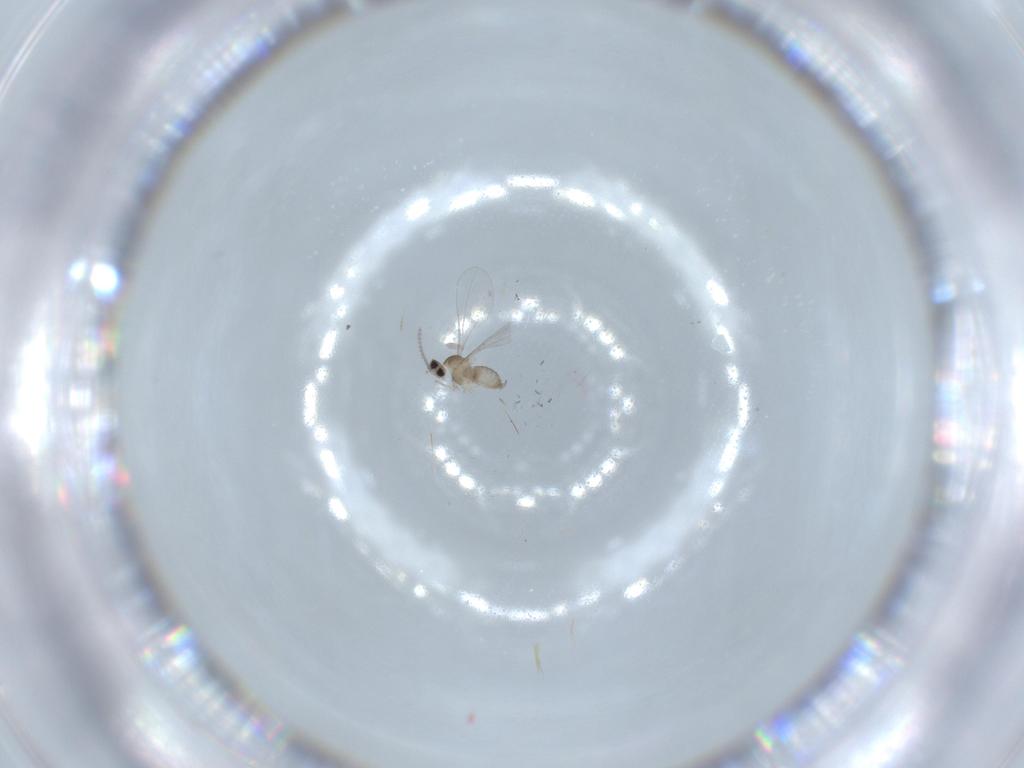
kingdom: Animalia
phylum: Arthropoda
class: Insecta
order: Diptera
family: Cecidomyiidae
